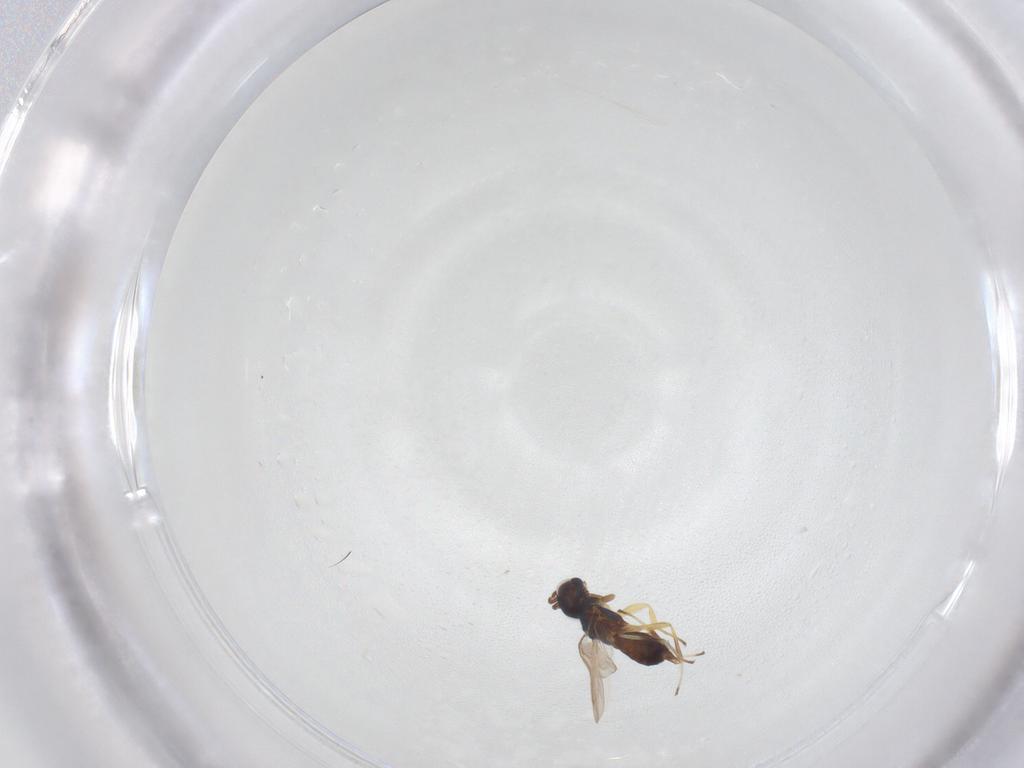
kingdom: Animalia
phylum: Arthropoda
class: Insecta
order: Hymenoptera
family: Eupelmidae
